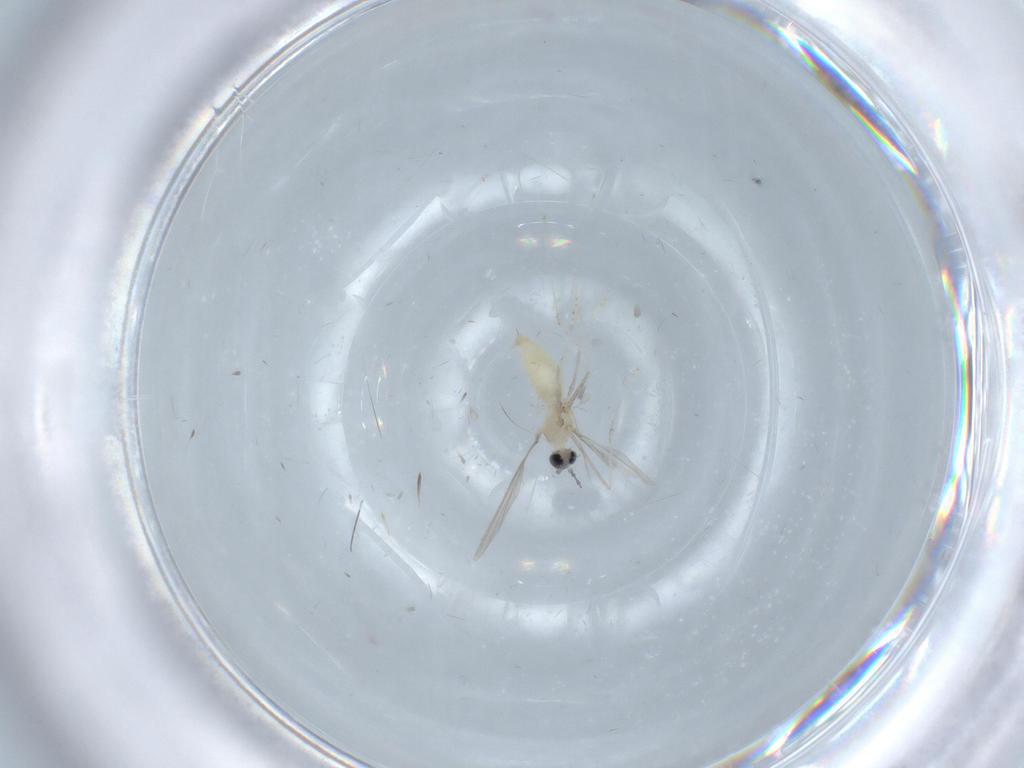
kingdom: Animalia
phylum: Arthropoda
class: Insecta
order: Diptera
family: Cecidomyiidae
